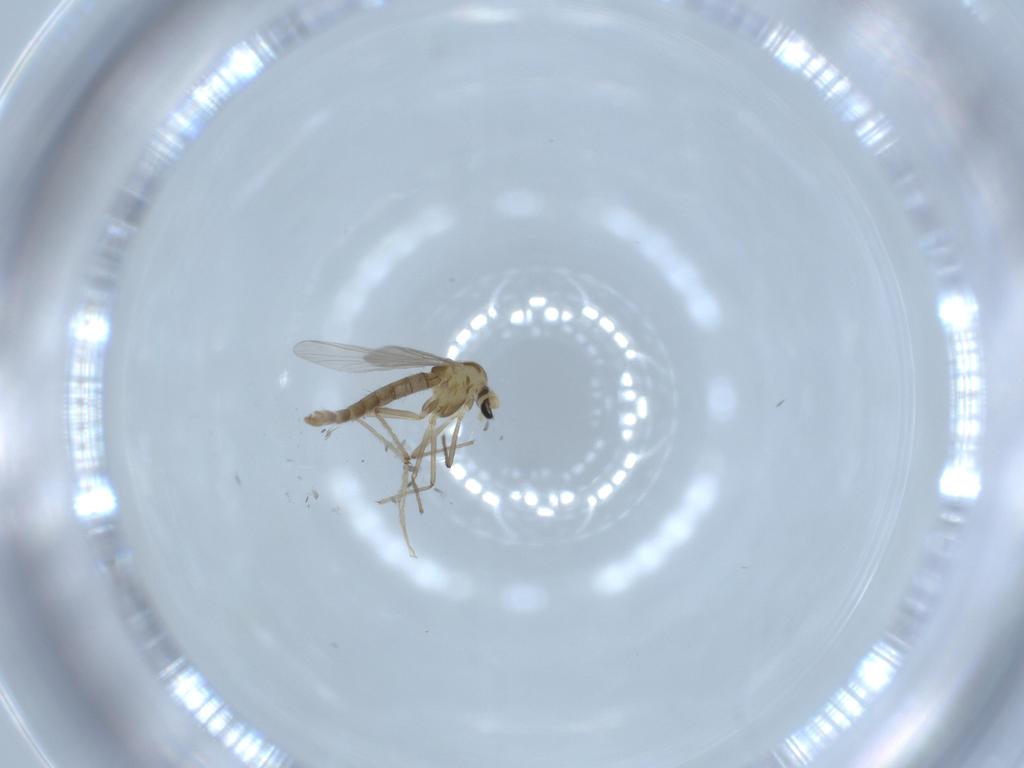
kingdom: Animalia
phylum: Arthropoda
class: Insecta
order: Diptera
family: Chironomidae
